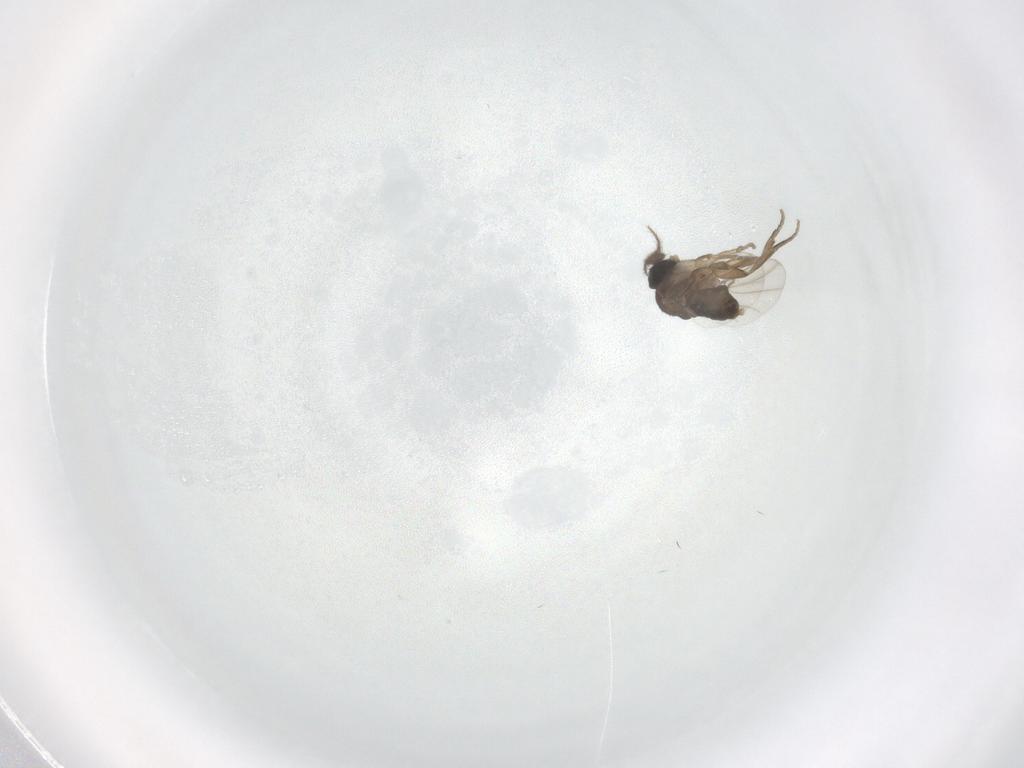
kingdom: Animalia
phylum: Arthropoda
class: Insecta
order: Diptera
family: Phoridae
